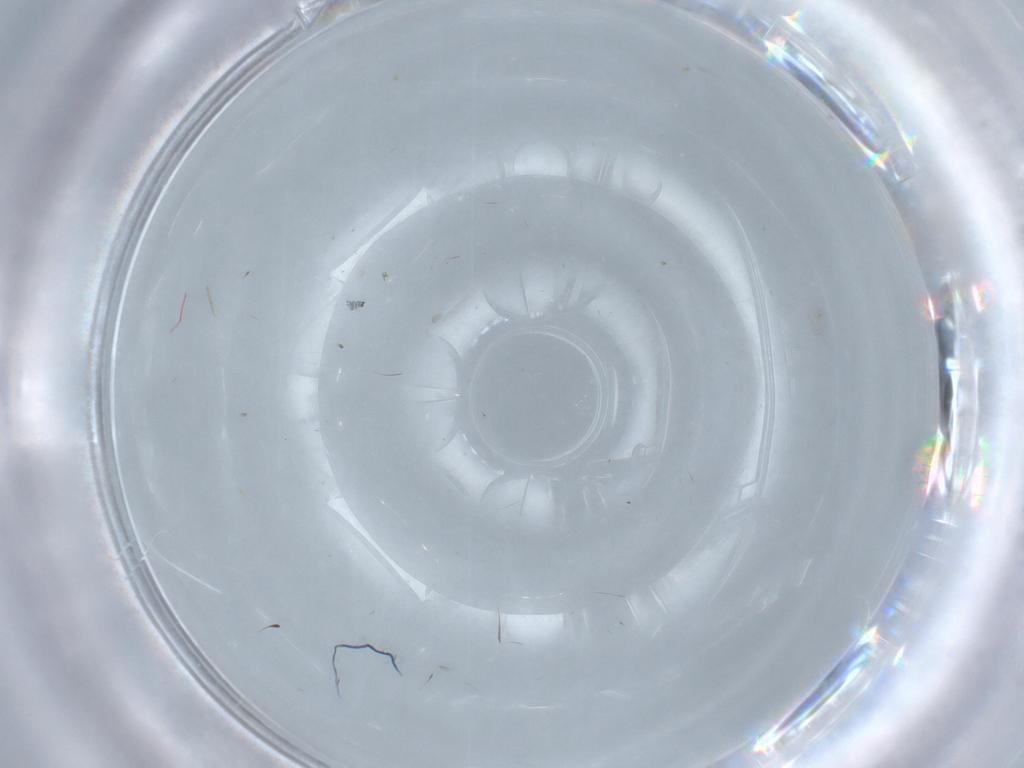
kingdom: Animalia
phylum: Arthropoda
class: Insecta
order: Diptera
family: Cecidomyiidae
